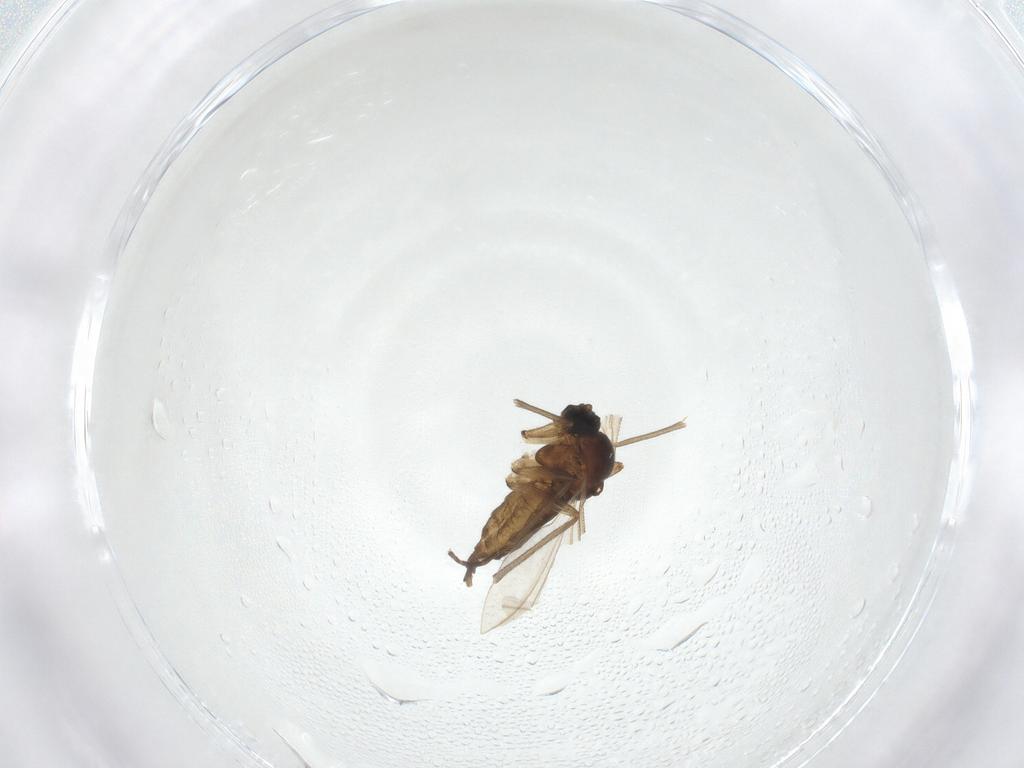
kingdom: Animalia
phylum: Arthropoda
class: Insecta
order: Diptera
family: Sciaridae
